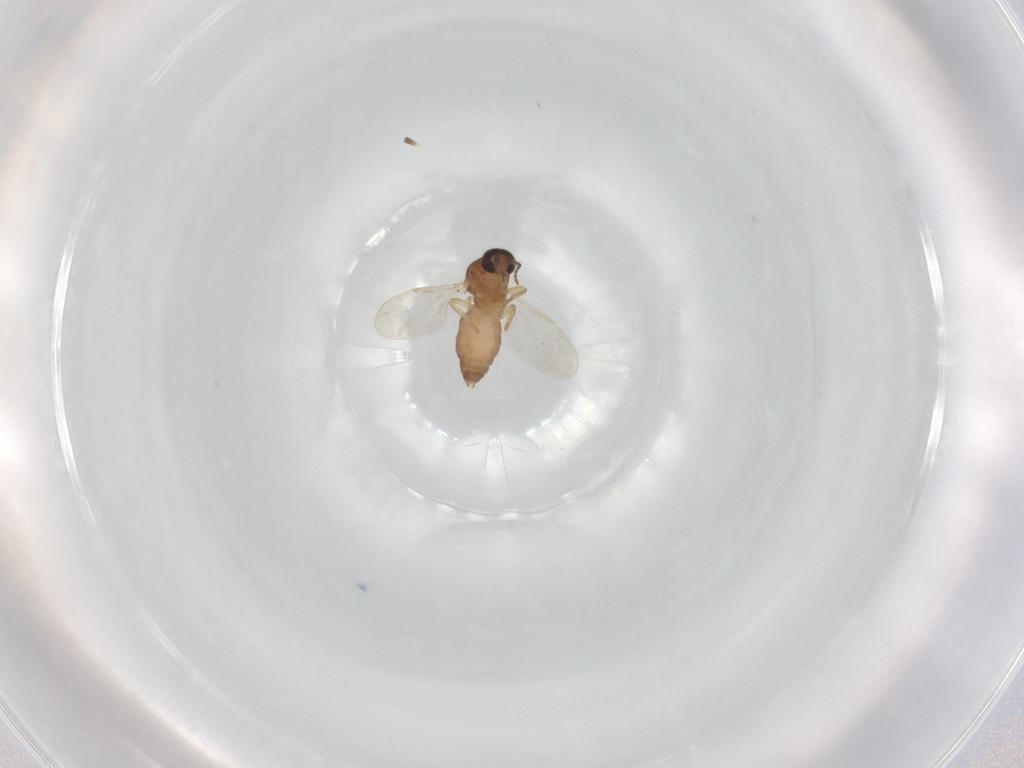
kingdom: Animalia
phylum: Arthropoda
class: Insecta
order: Diptera
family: Ceratopogonidae
